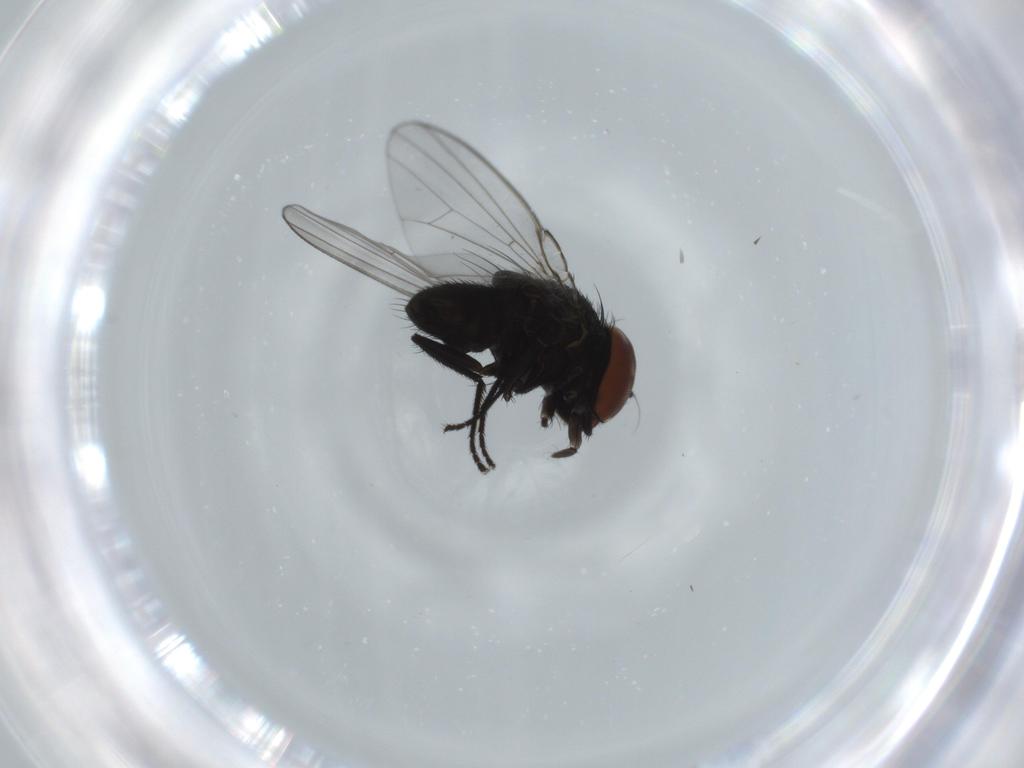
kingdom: Animalia
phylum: Arthropoda
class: Insecta
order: Diptera
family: Milichiidae
